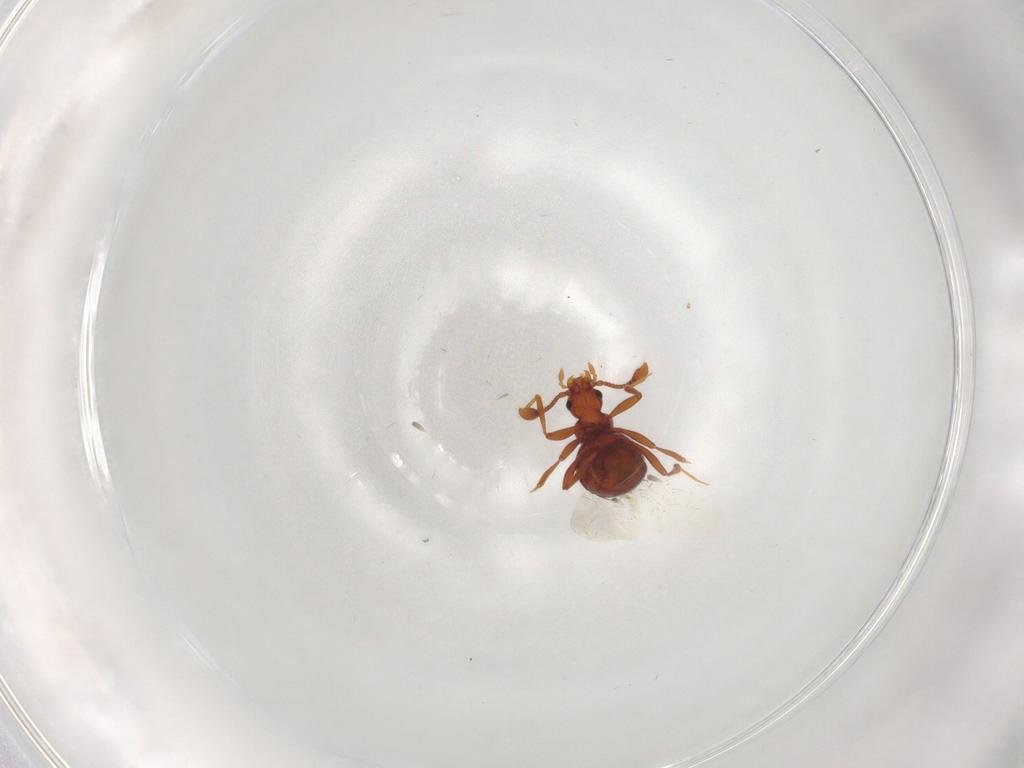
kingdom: Animalia
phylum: Arthropoda
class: Insecta
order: Coleoptera
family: Staphylinidae
